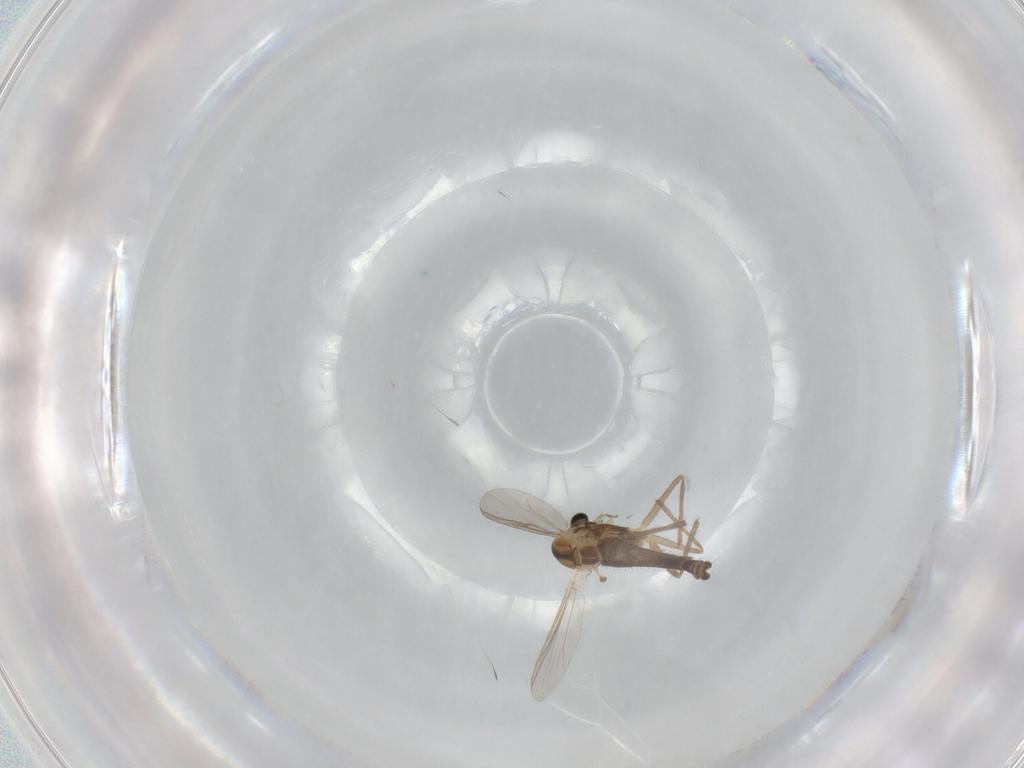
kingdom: Animalia
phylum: Arthropoda
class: Insecta
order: Diptera
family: Chironomidae
